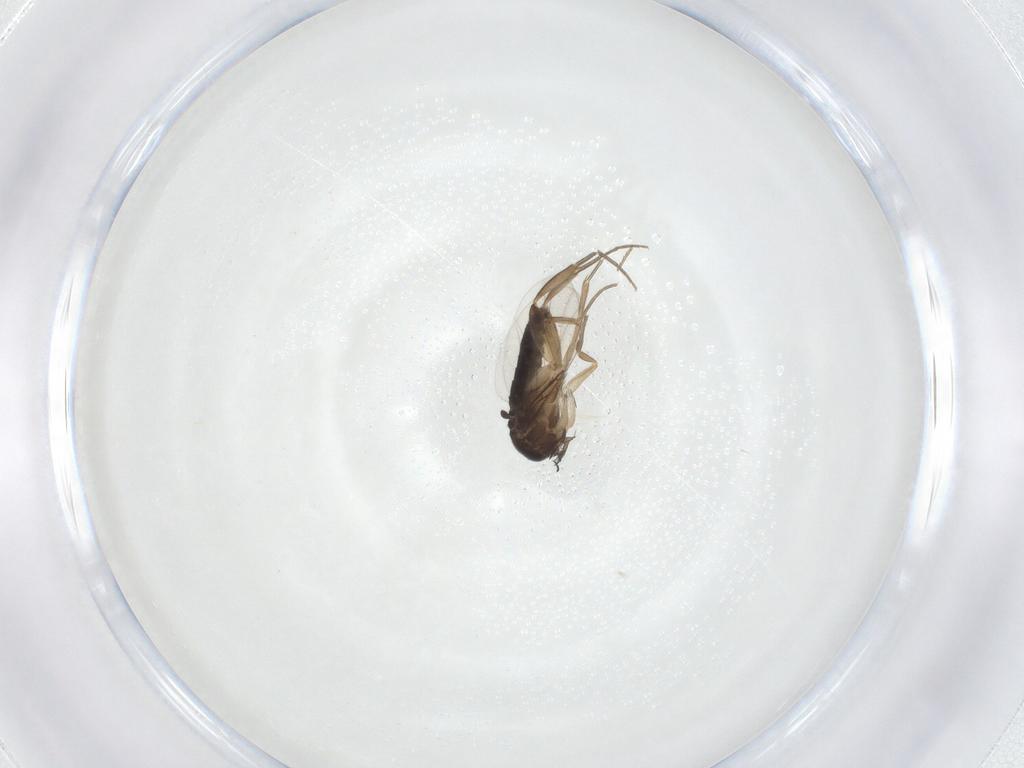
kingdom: Animalia
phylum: Arthropoda
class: Insecta
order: Diptera
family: Phoridae
